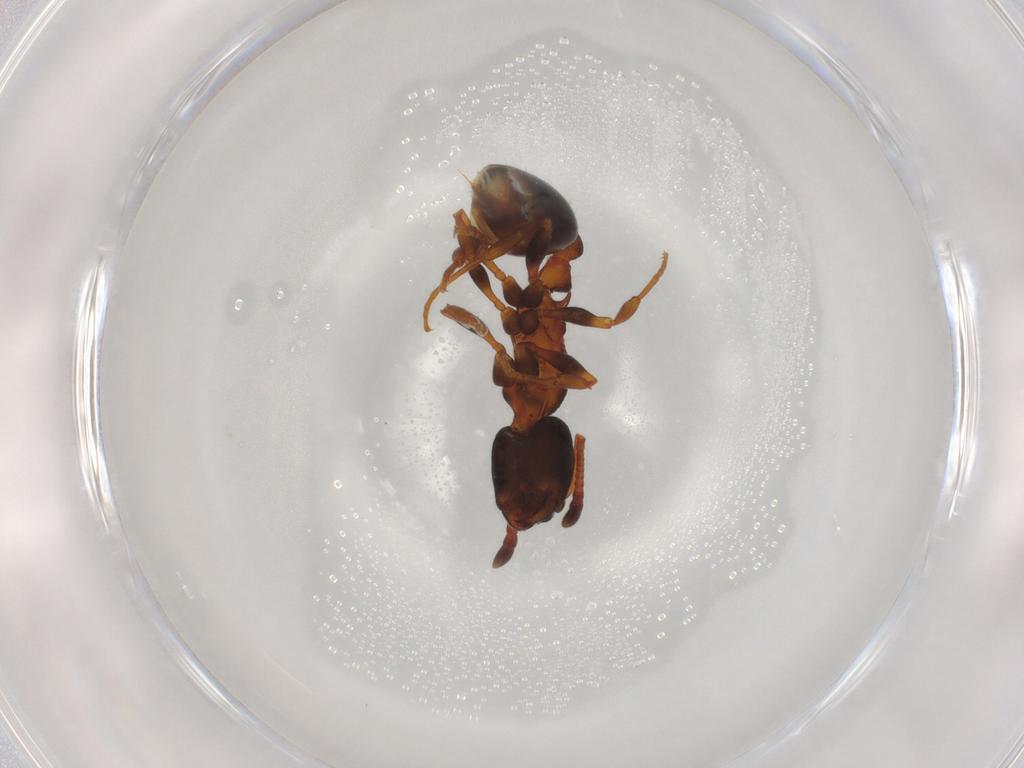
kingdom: Animalia
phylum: Arthropoda
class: Insecta
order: Hymenoptera
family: Formicidae
